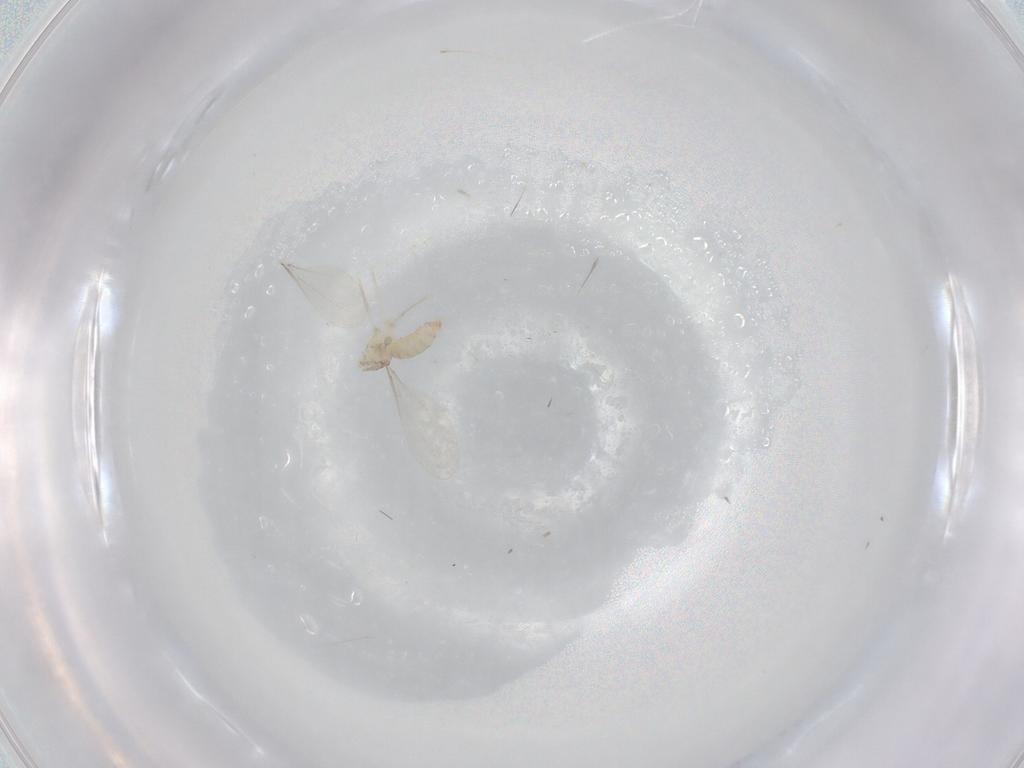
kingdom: Animalia
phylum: Arthropoda
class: Insecta
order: Diptera
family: Cecidomyiidae
